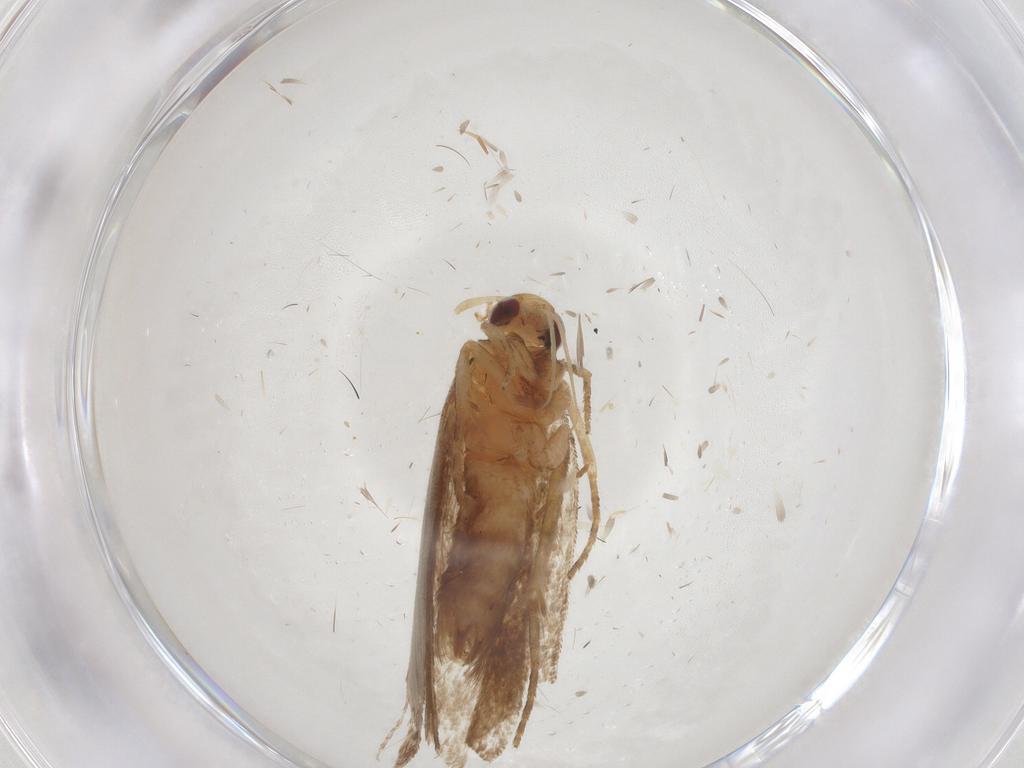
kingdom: Animalia
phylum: Arthropoda
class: Insecta
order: Lepidoptera
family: Gelechiidae
